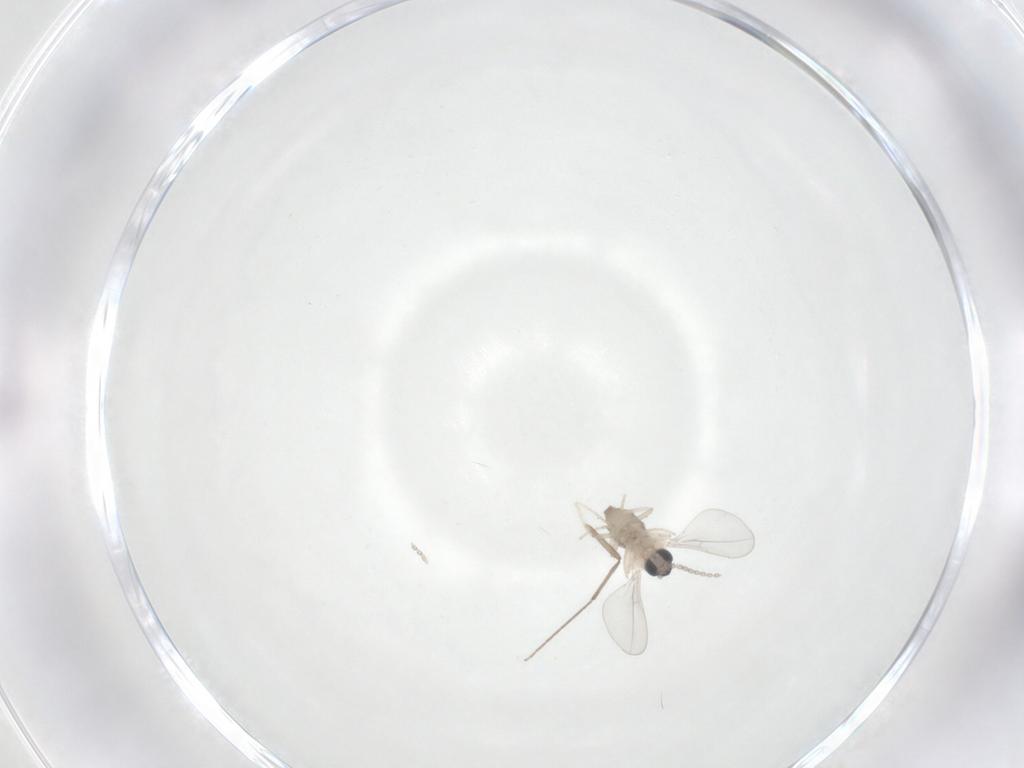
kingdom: Animalia
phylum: Arthropoda
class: Insecta
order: Diptera
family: Cecidomyiidae
